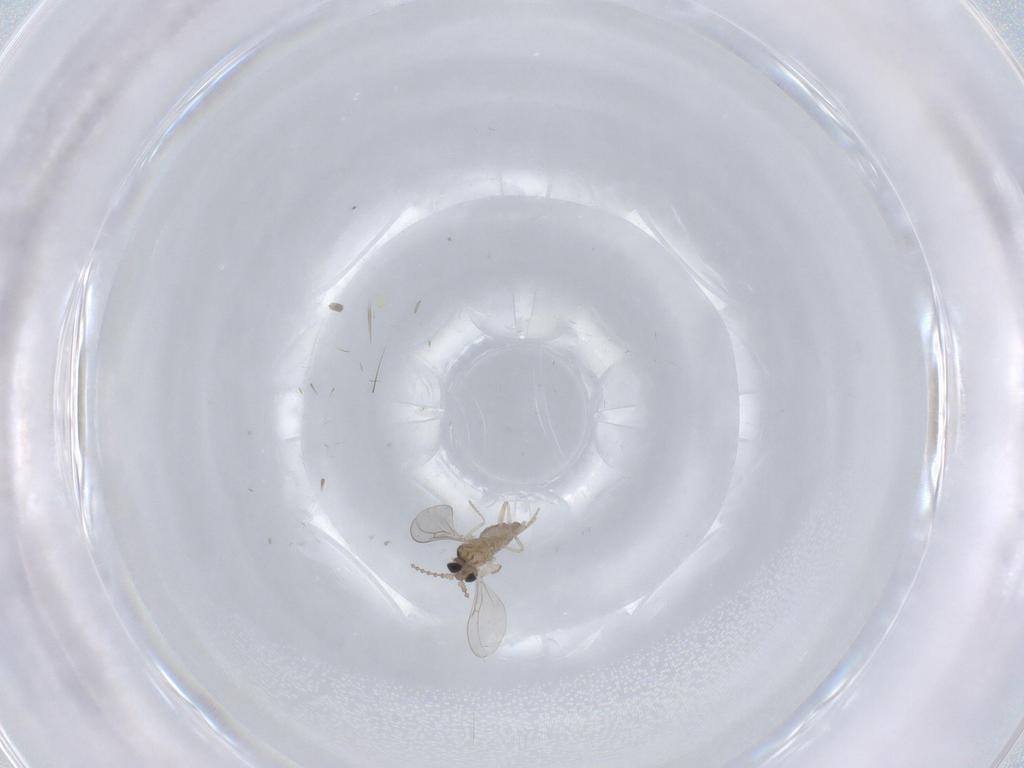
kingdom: Animalia
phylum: Arthropoda
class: Insecta
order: Diptera
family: Cecidomyiidae
